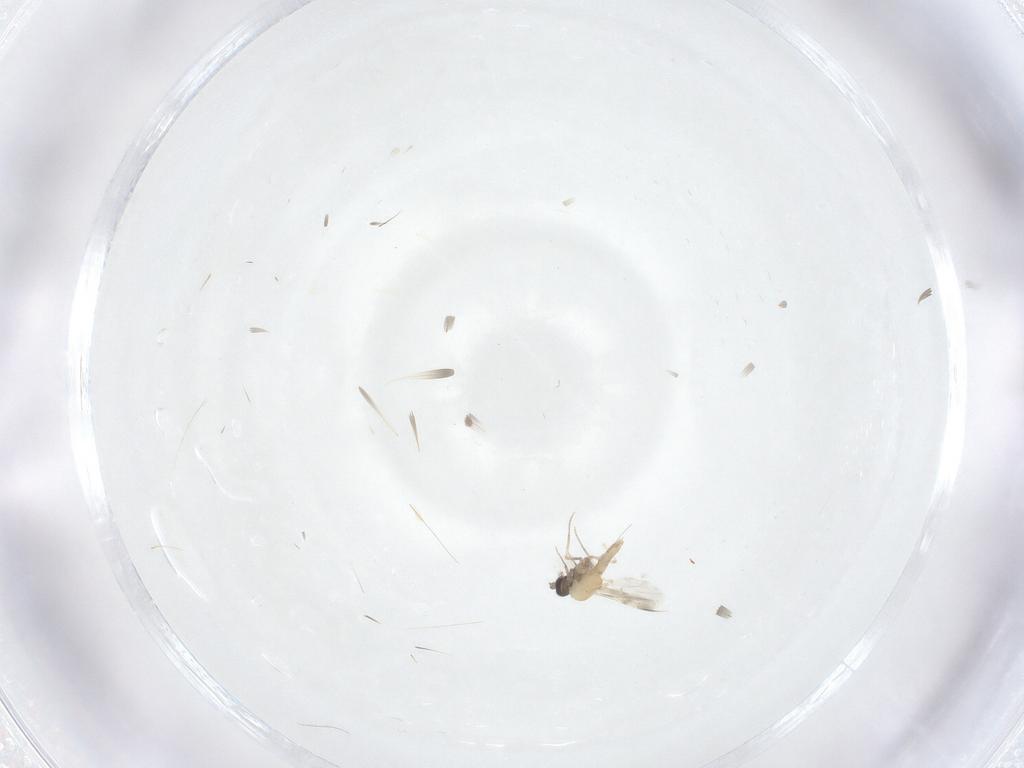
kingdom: Animalia
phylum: Arthropoda
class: Insecta
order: Diptera
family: Phoridae
